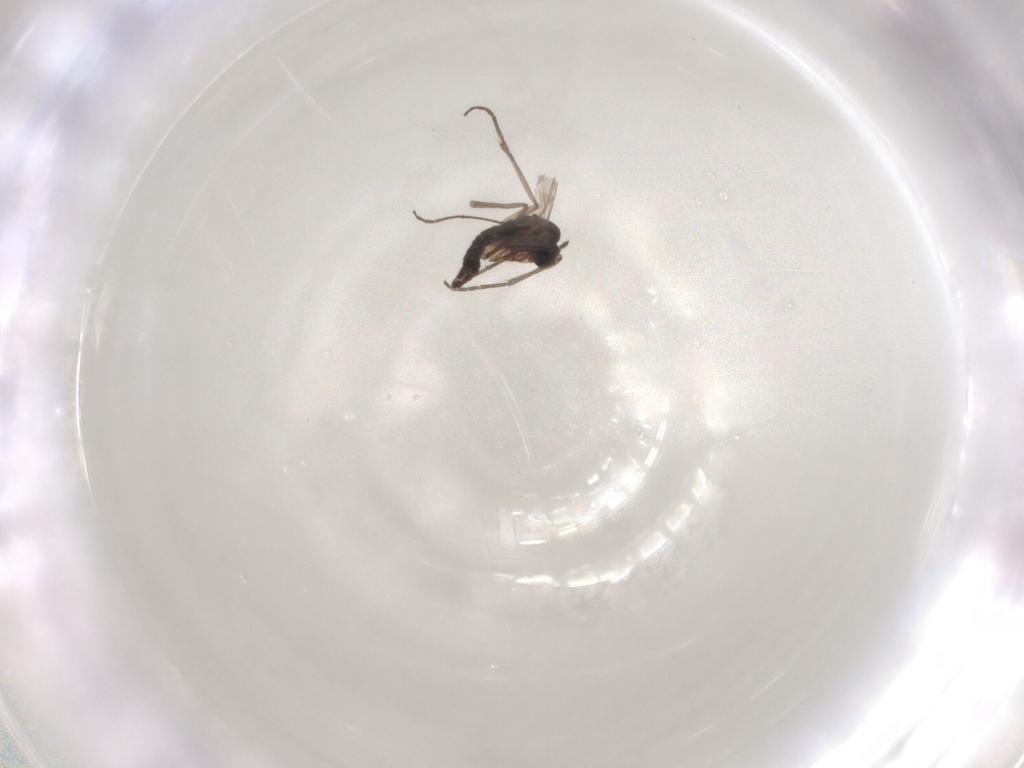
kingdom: Animalia
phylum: Arthropoda
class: Insecta
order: Diptera
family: Sciaridae
